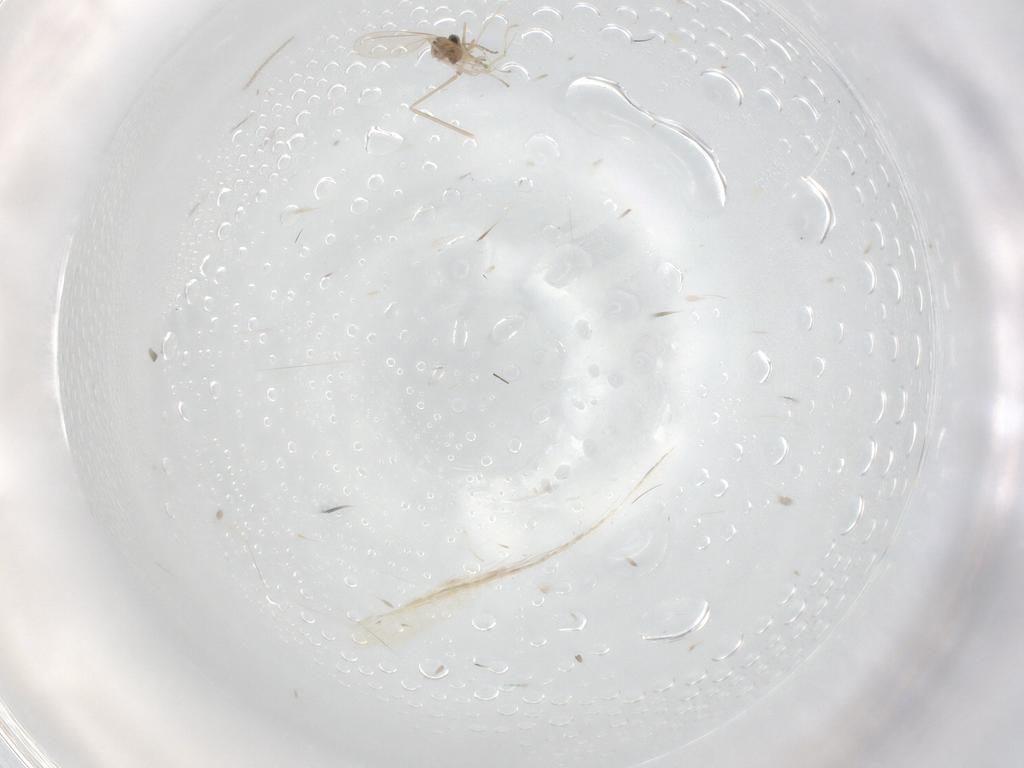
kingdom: Animalia
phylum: Arthropoda
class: Insecta
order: Diptera
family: Cecidomyiidae
